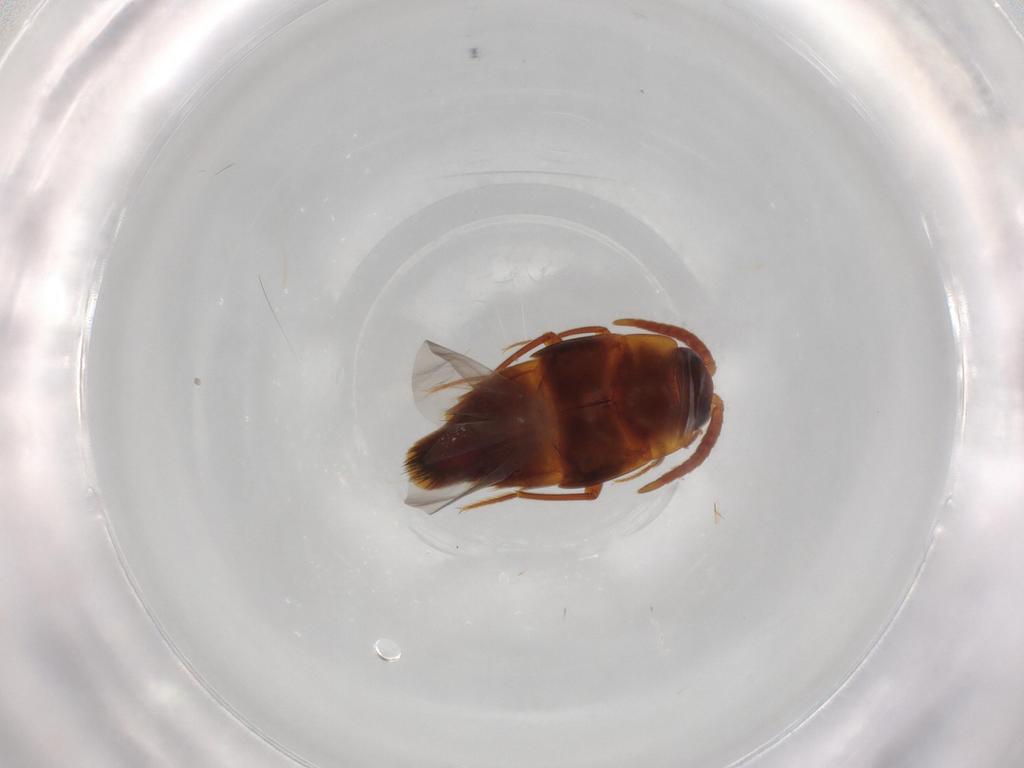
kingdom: Animalia
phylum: Arthropoda
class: Insecta
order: Coleoptera
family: Staphylinidae
